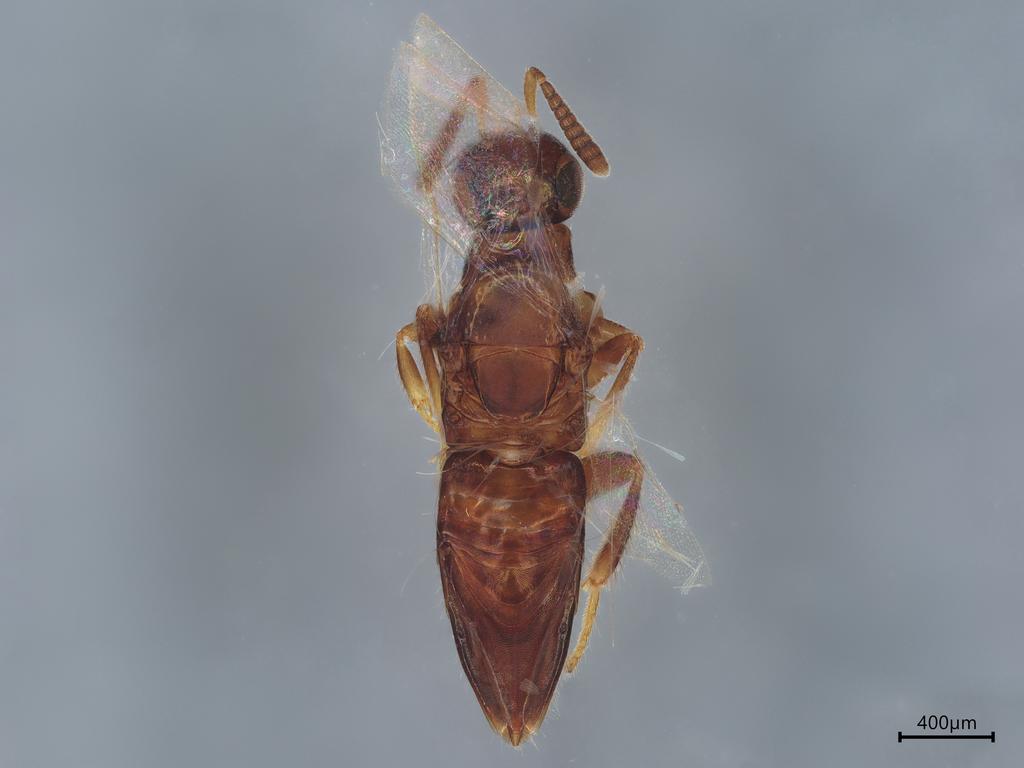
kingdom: Animalia
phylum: Arthropoda
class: Insecta
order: Hymenoptera
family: Encyrtidae
